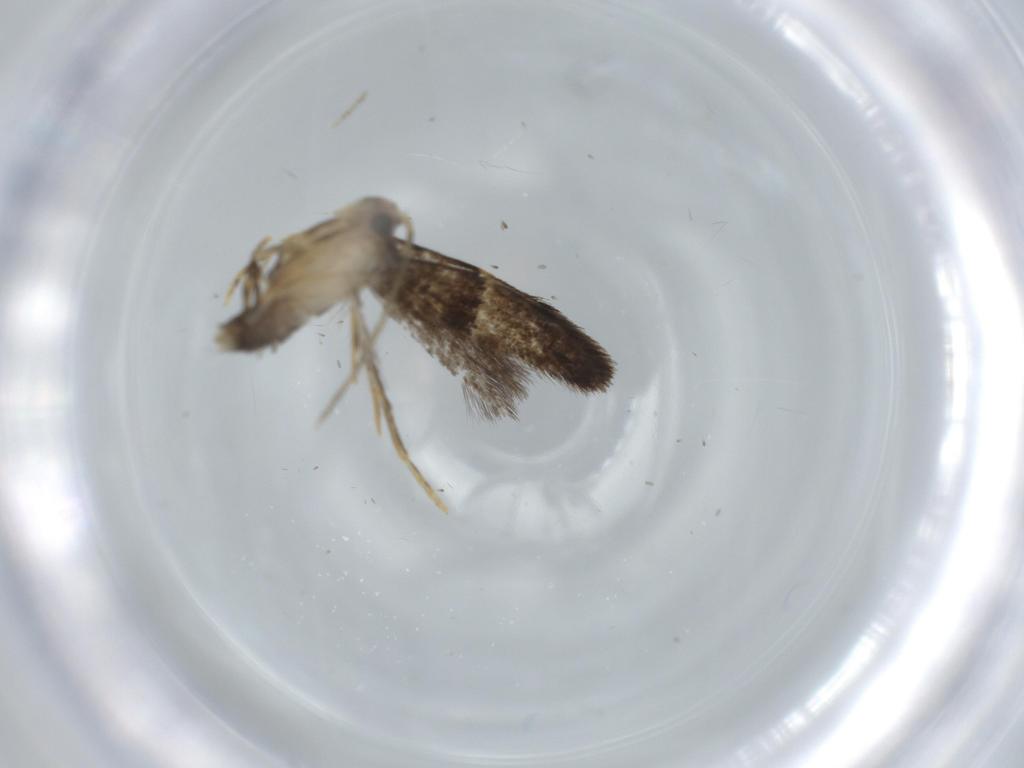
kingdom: Animalia
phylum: Arthropoda
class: Insecta
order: Lepidoptera
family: Tineidae
